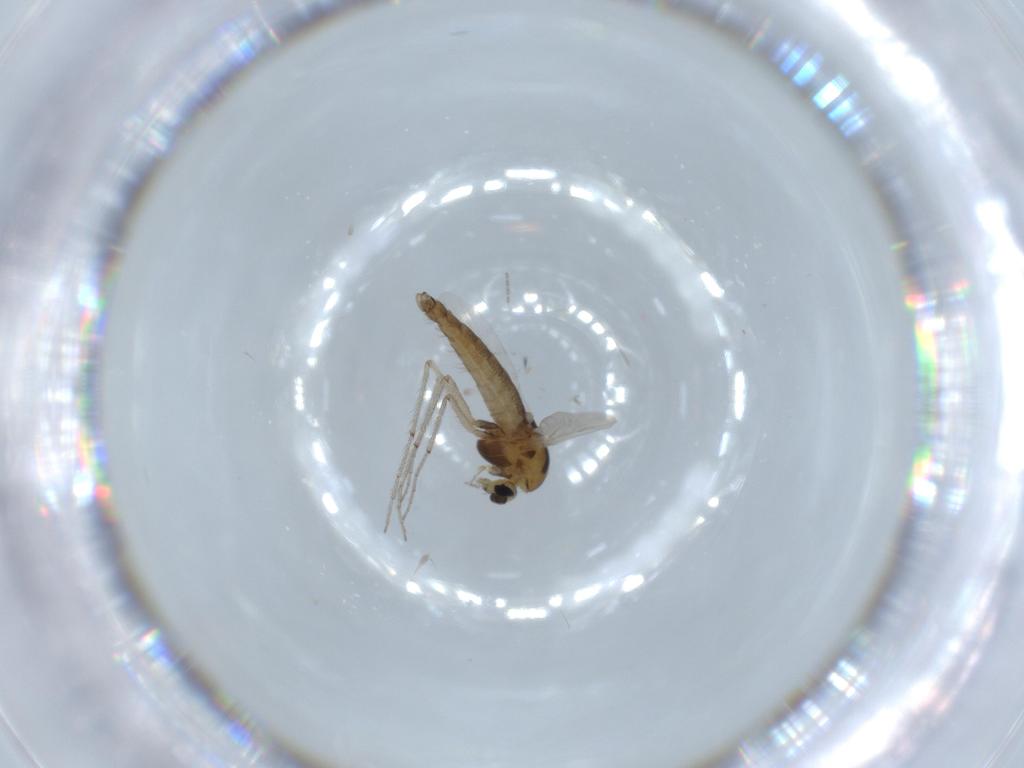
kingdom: Animalia
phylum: Arthropoda
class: Insecta
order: Diptera
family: Chironomidae
